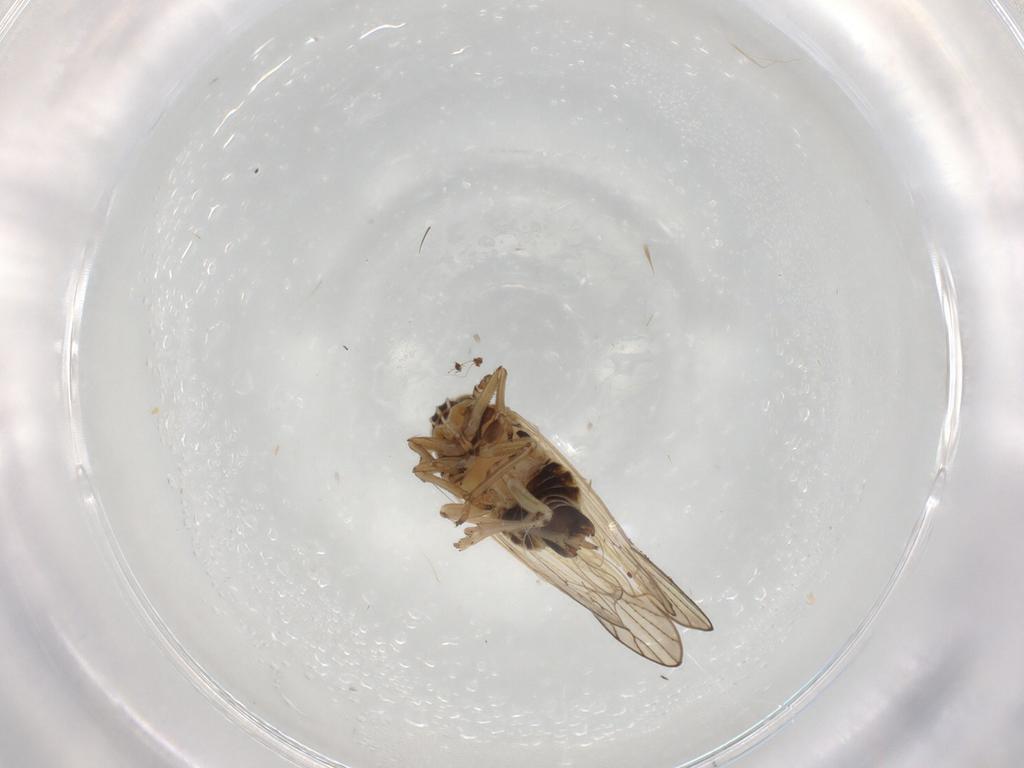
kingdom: Animalia
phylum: Arthropoda
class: Insecta
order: Hemiptera
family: Delphacidae
